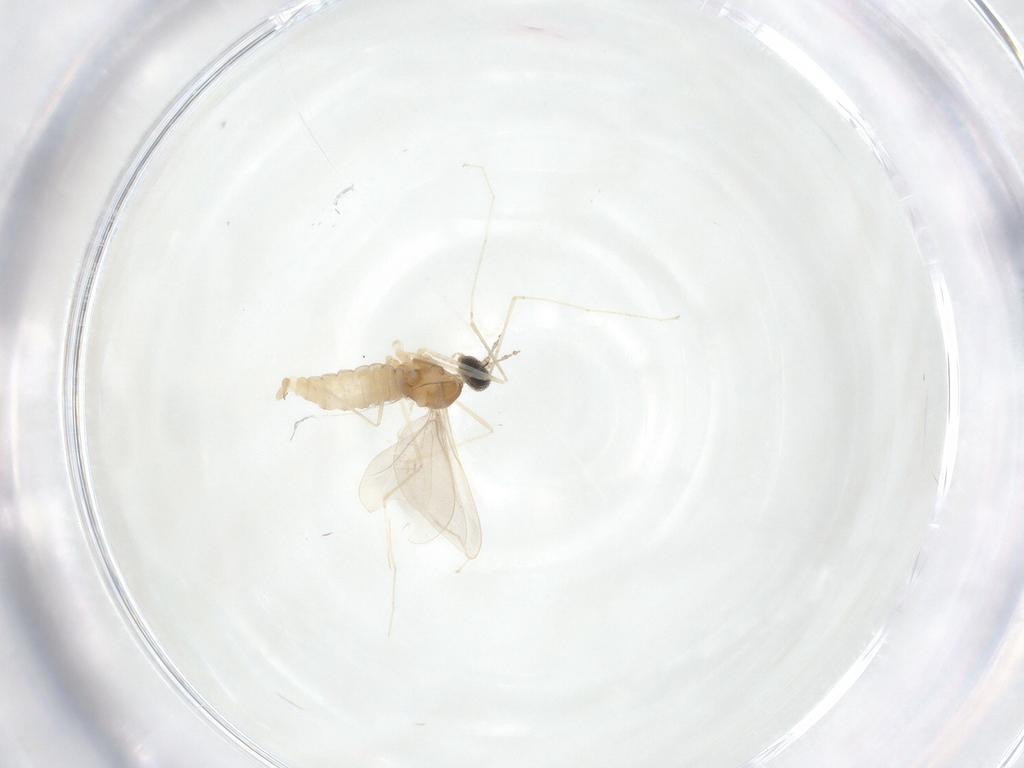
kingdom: Animalia
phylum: Arthropoda
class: Insecta
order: Diptera
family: Cecidomyiidae
